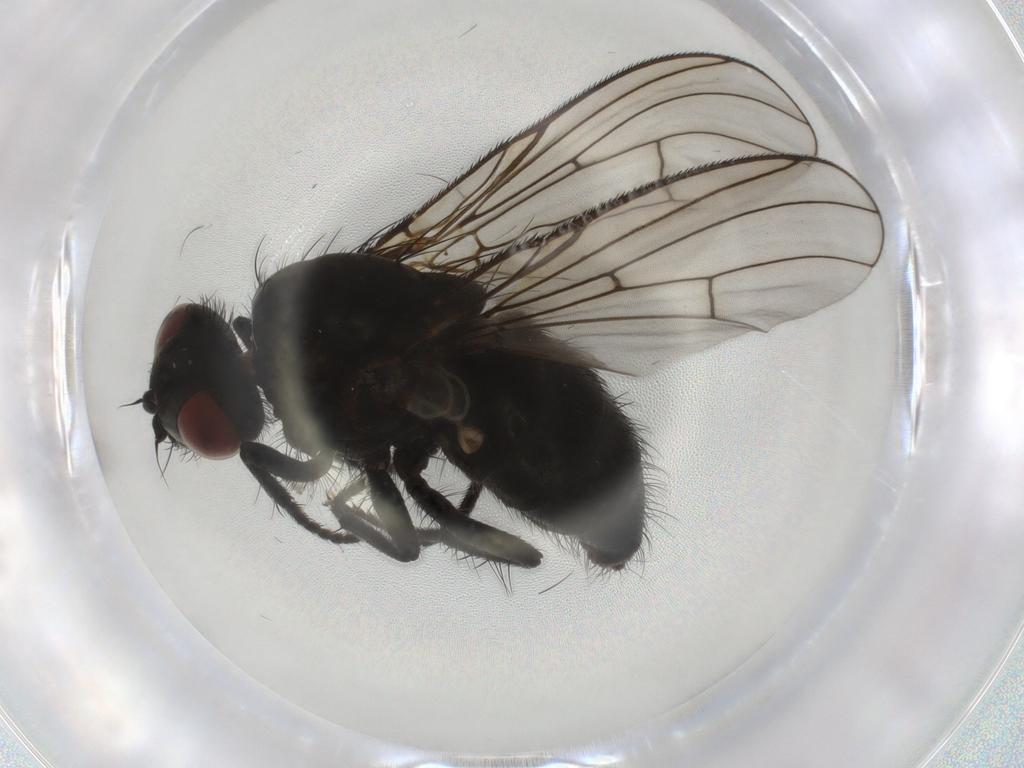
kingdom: Animalia
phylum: Arthropoda
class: Insecta
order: Diptera
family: Muscidae
